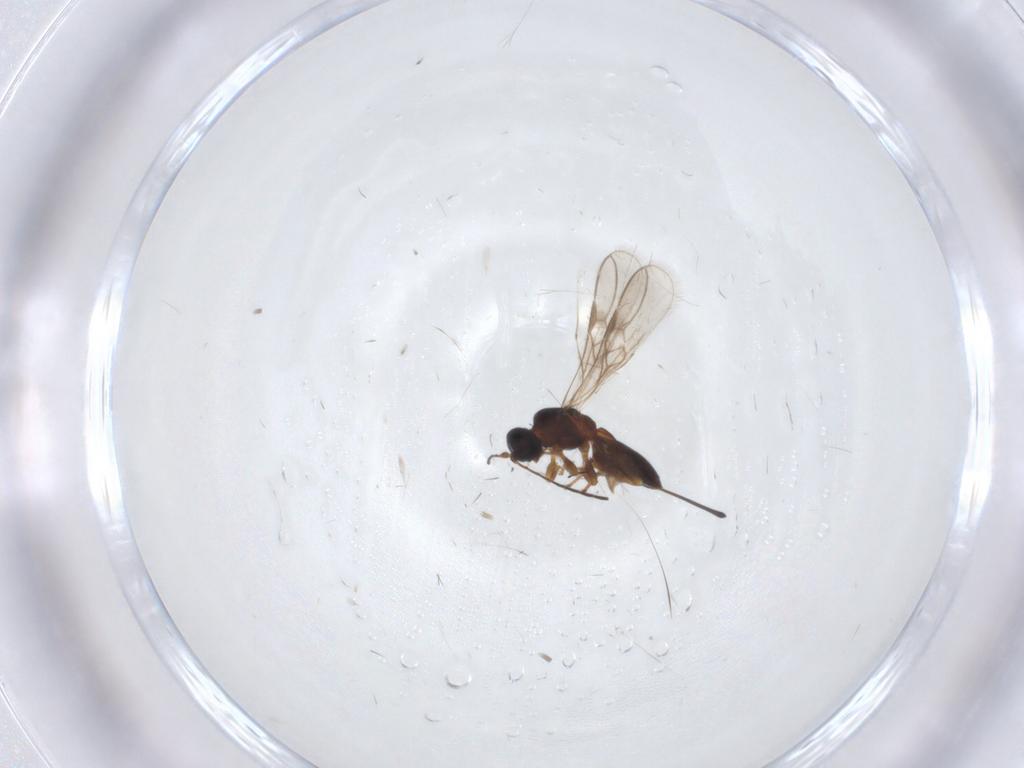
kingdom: Animalia
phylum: Arthropoda
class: Insecta
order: Hymenoptera
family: Braconidae
